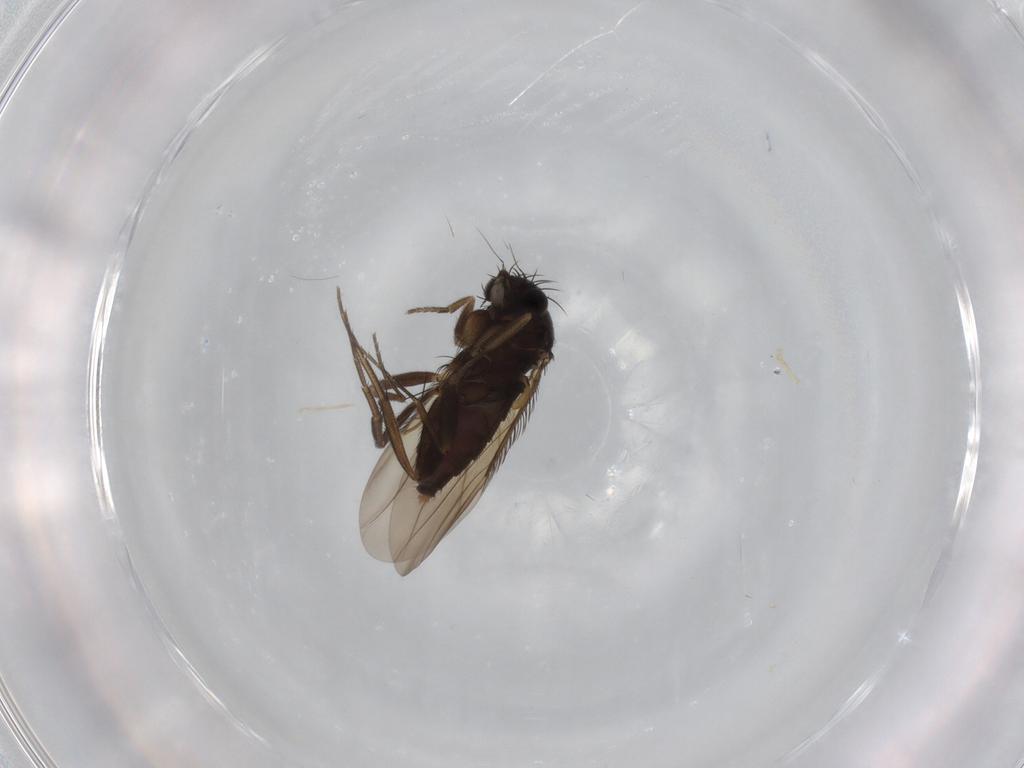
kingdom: Animalia
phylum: Arthropoda
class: Insecta
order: Diptera
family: Phoridae
